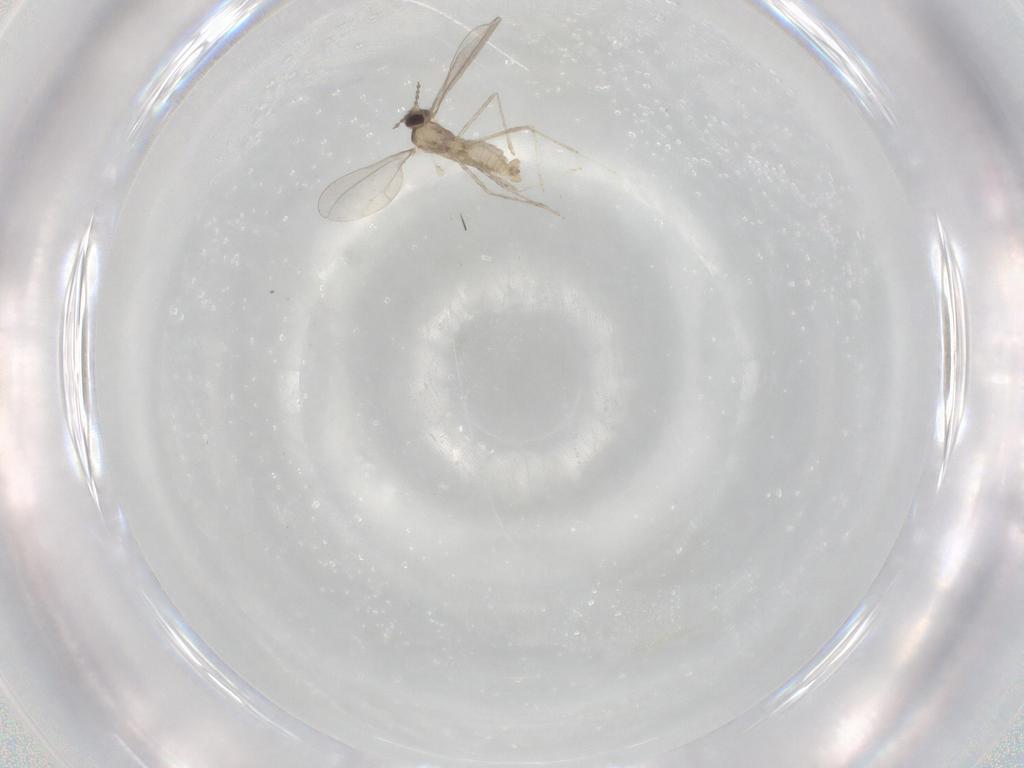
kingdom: Animalia
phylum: Arthropoda
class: Insecta
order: Diptera
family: Cecidomyiidae
